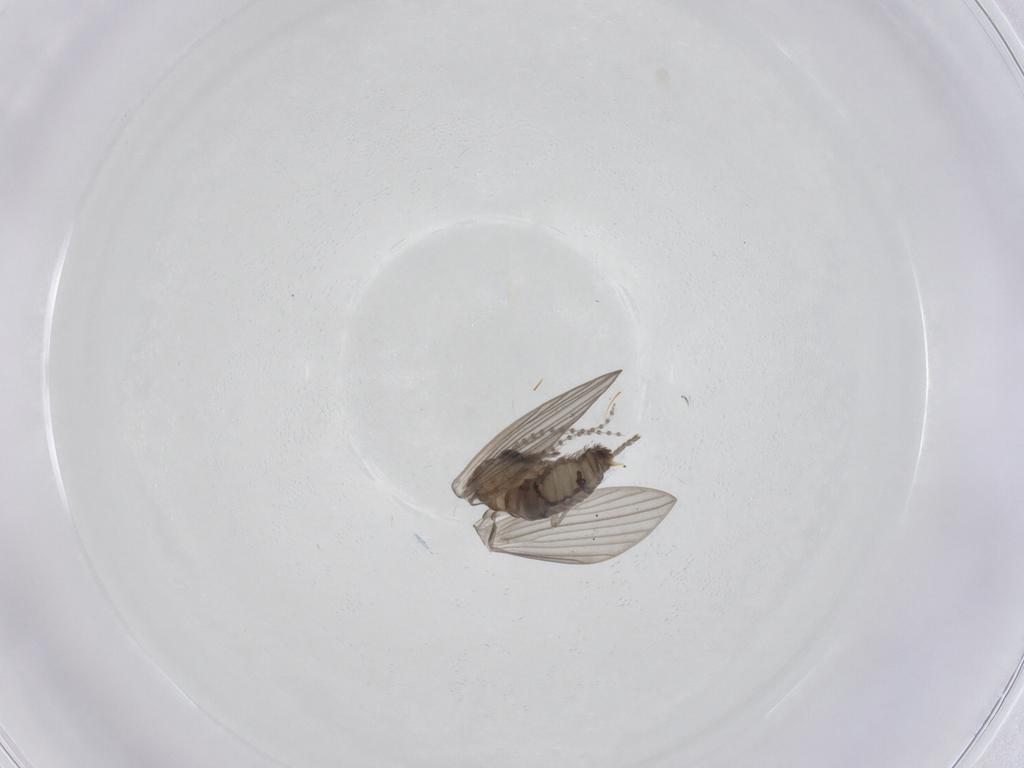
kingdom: Animalia
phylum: Arthropoda
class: Insecta
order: Diptera
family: Psychodidae
